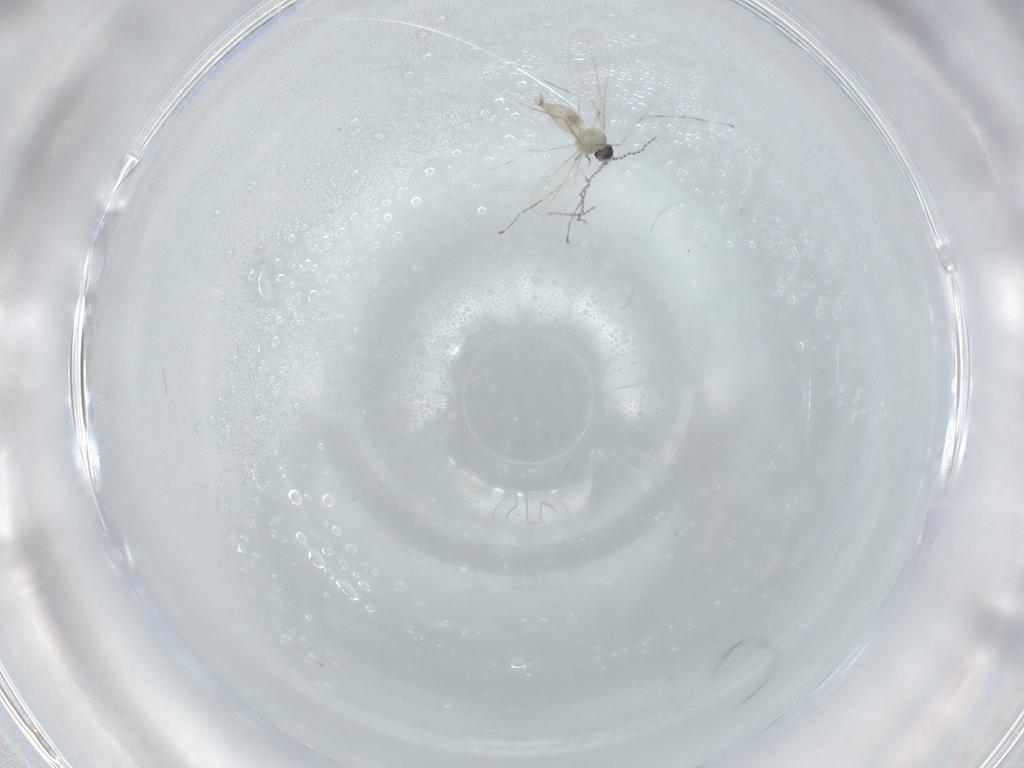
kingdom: Animalia
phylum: Arthropoda
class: Insecta
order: Diptera
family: Cecidomyiidae
